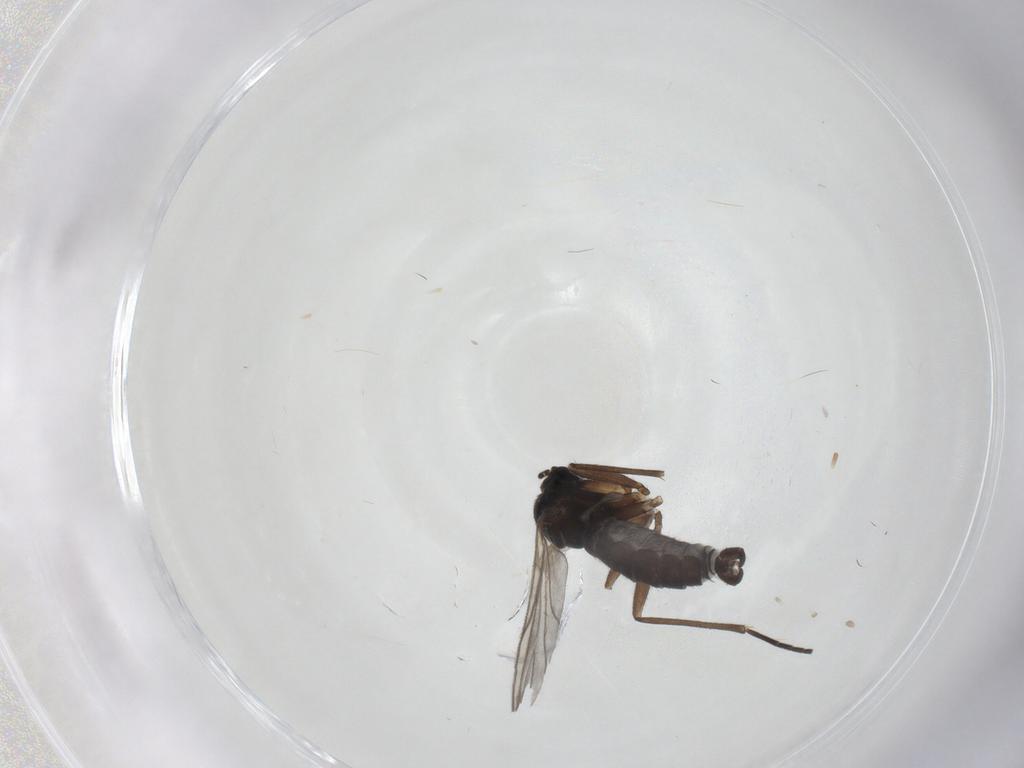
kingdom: Animalia
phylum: Arthropoda
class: Insecta
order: Diptera
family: Sciaridae
